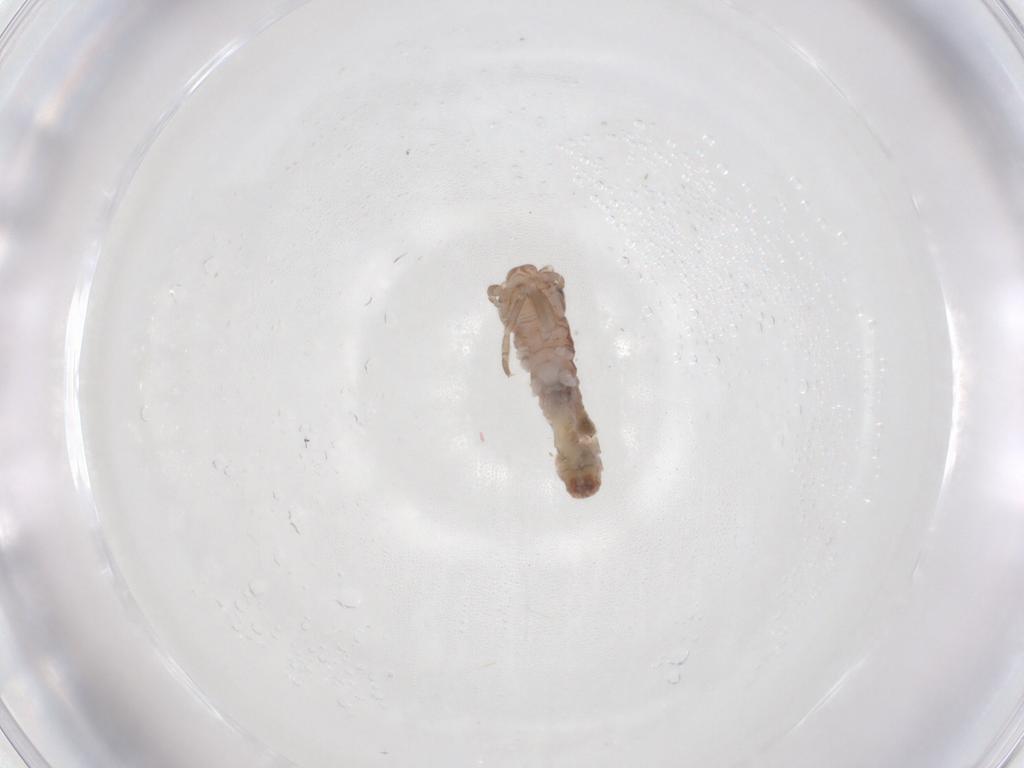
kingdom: Animalia
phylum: Arthropoda
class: Insecta
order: Orthoptera
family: Mogoplistidae
